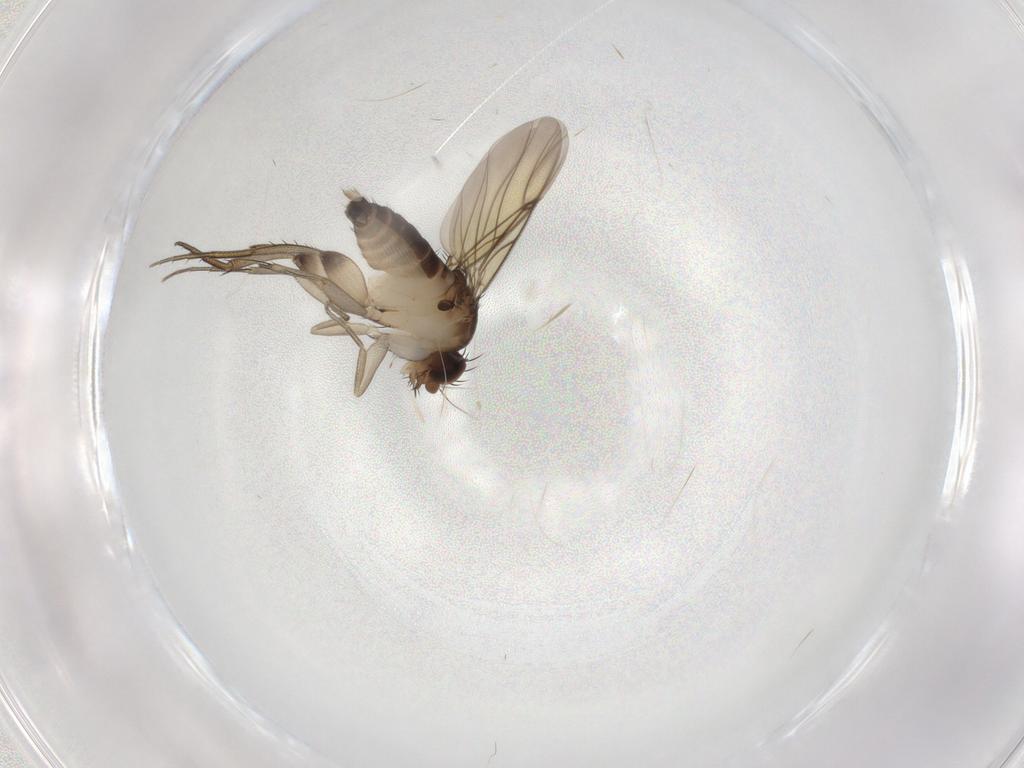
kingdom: Animalia
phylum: Arthropoda
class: Insecta
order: Diptera
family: Phoridae
